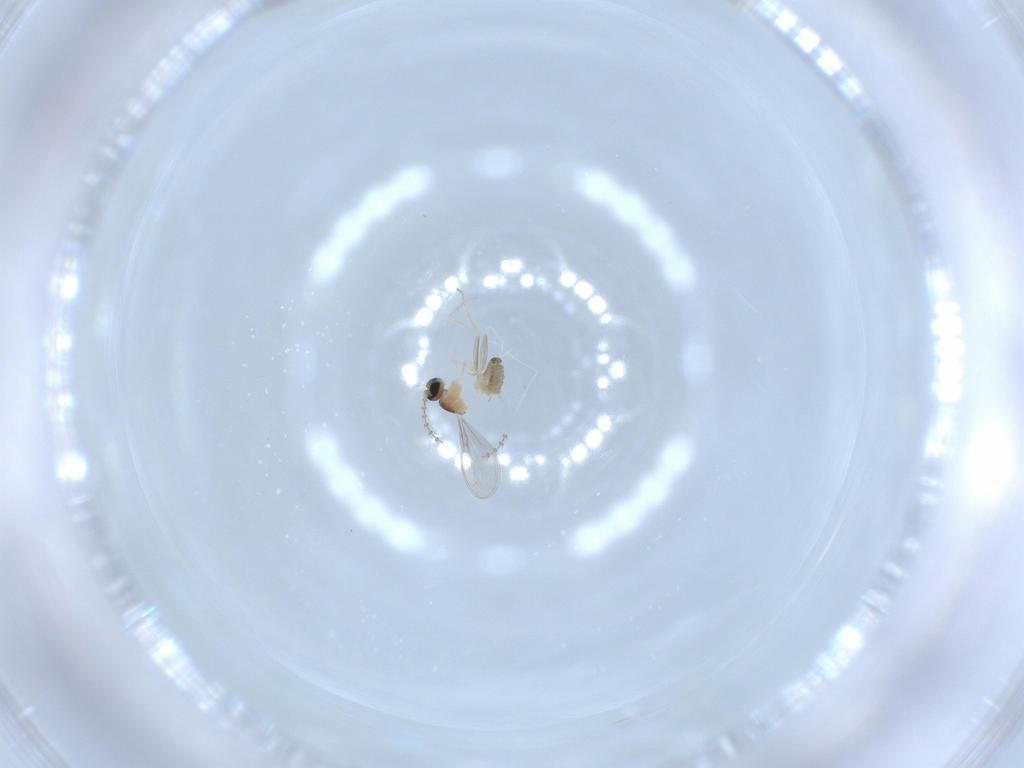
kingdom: Animalia
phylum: Arthropoda
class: Insecta
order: Diptera
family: Cecidomyiidae
